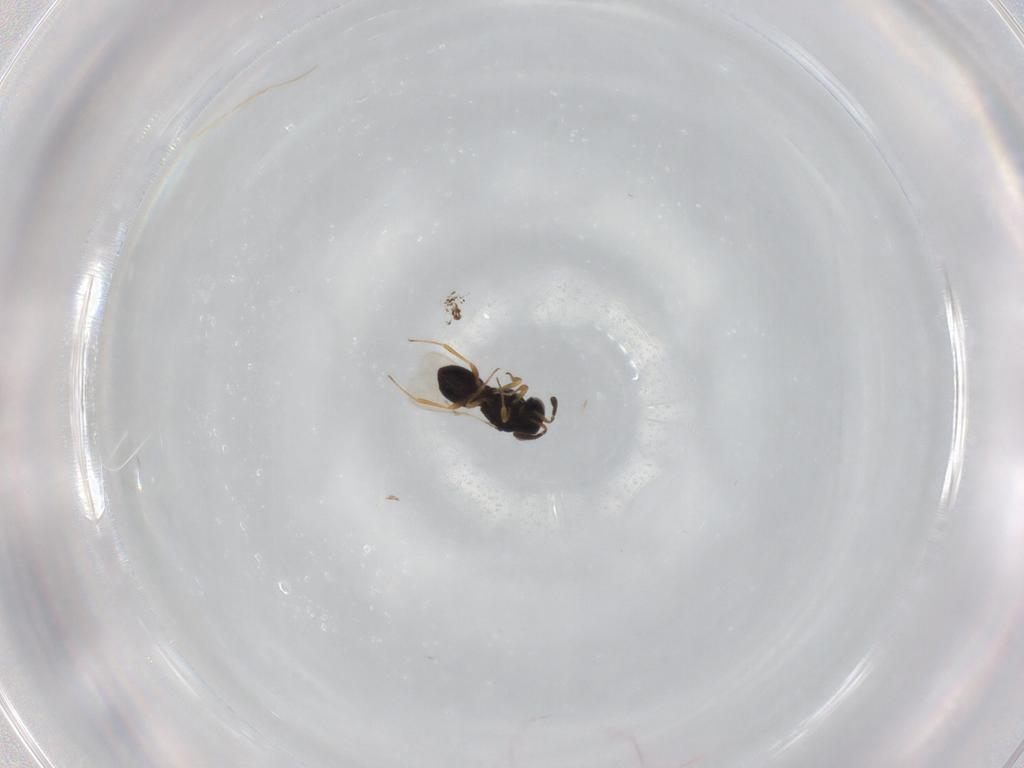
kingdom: Animalia
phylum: Arthropoda
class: Insecta
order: Hymenoptera
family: Scelionidae
